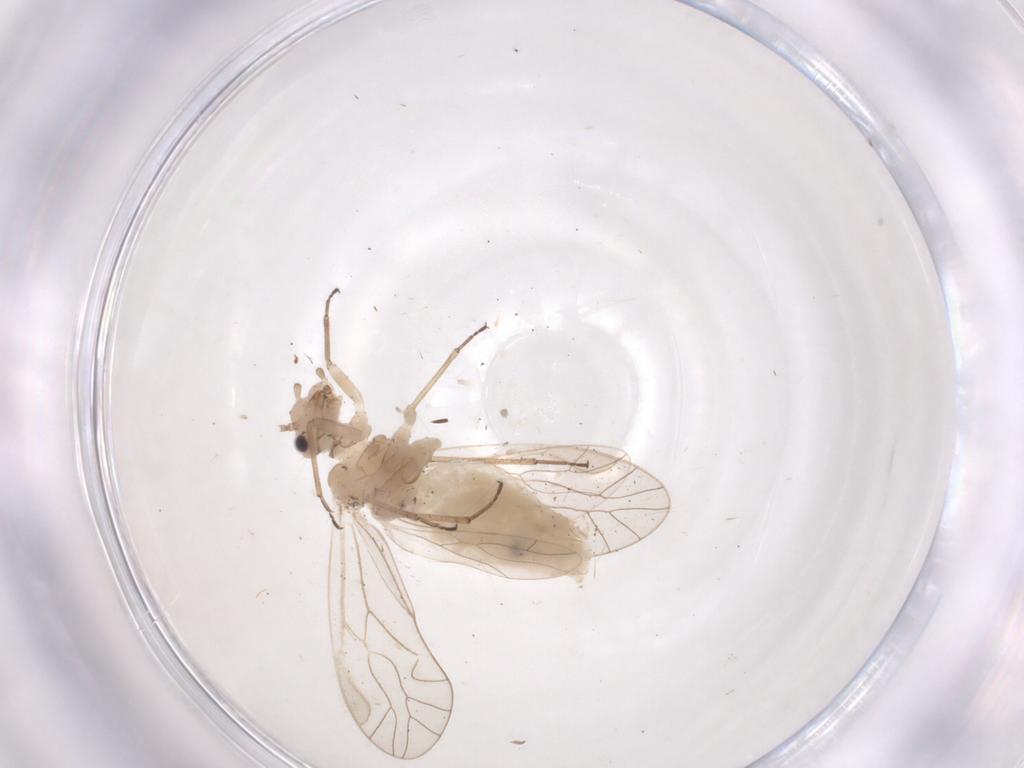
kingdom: Animalia
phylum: Arthropoda
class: Insecta
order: Psocodea
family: Elipsocidae
